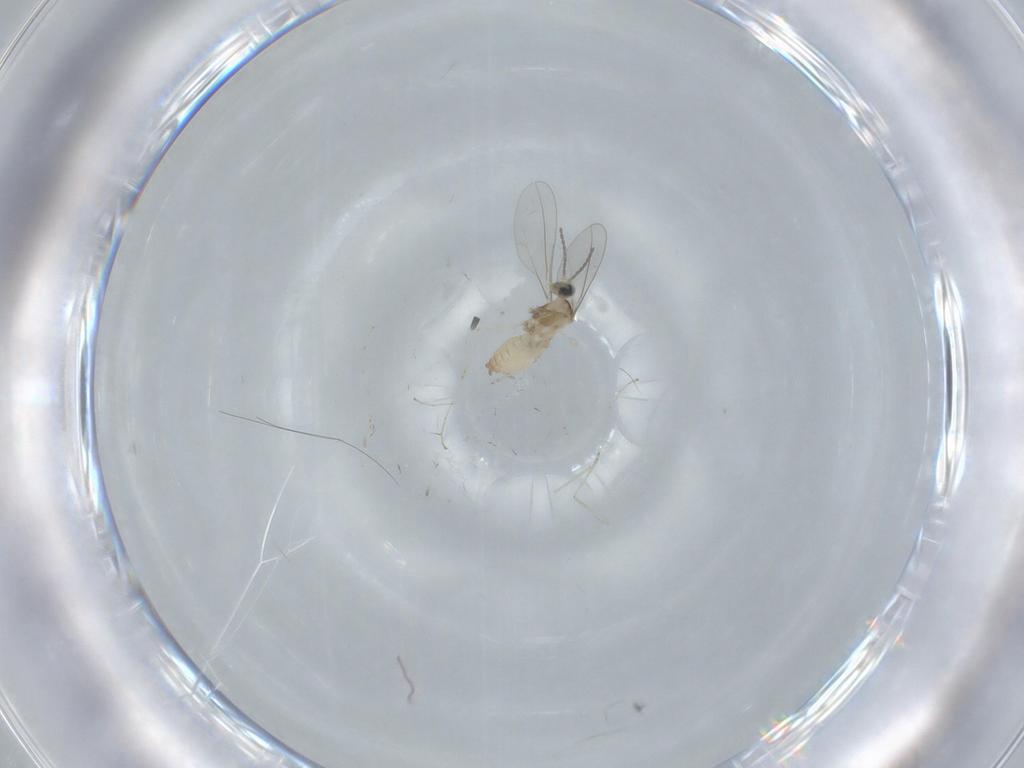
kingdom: Animalia
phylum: Arthropoda
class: Insecta
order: Diptera
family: Cecidomyiidae
